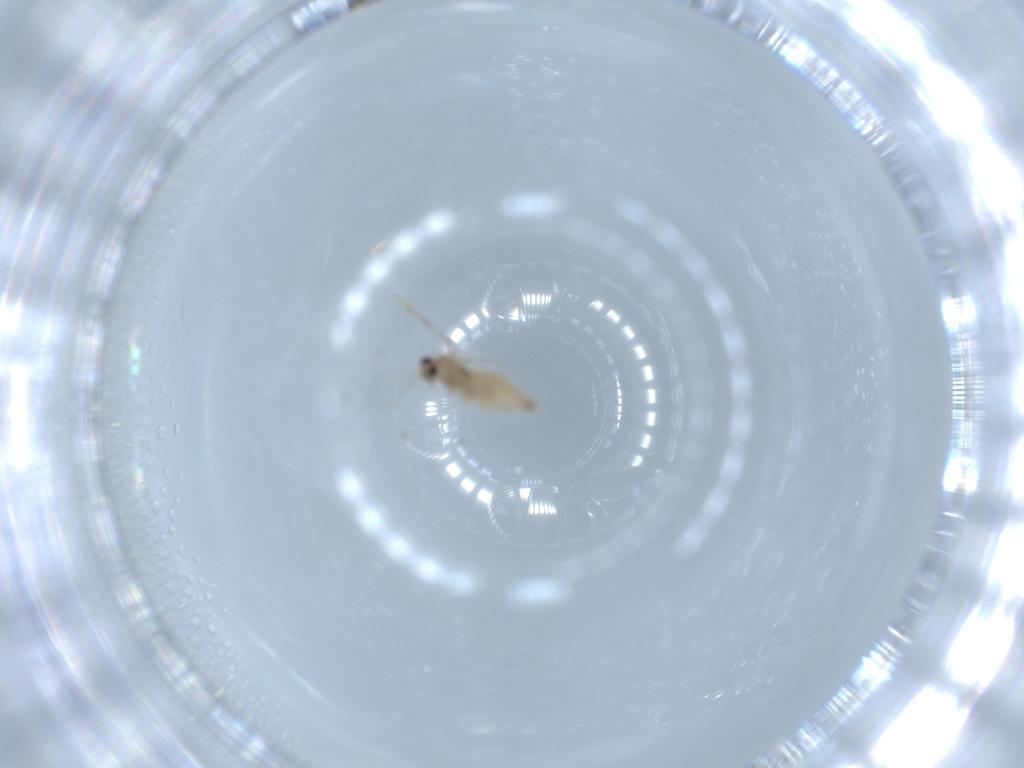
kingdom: Animalia
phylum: Arthropoda
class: Insecta
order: Diptera
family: Cecidomyiidae
